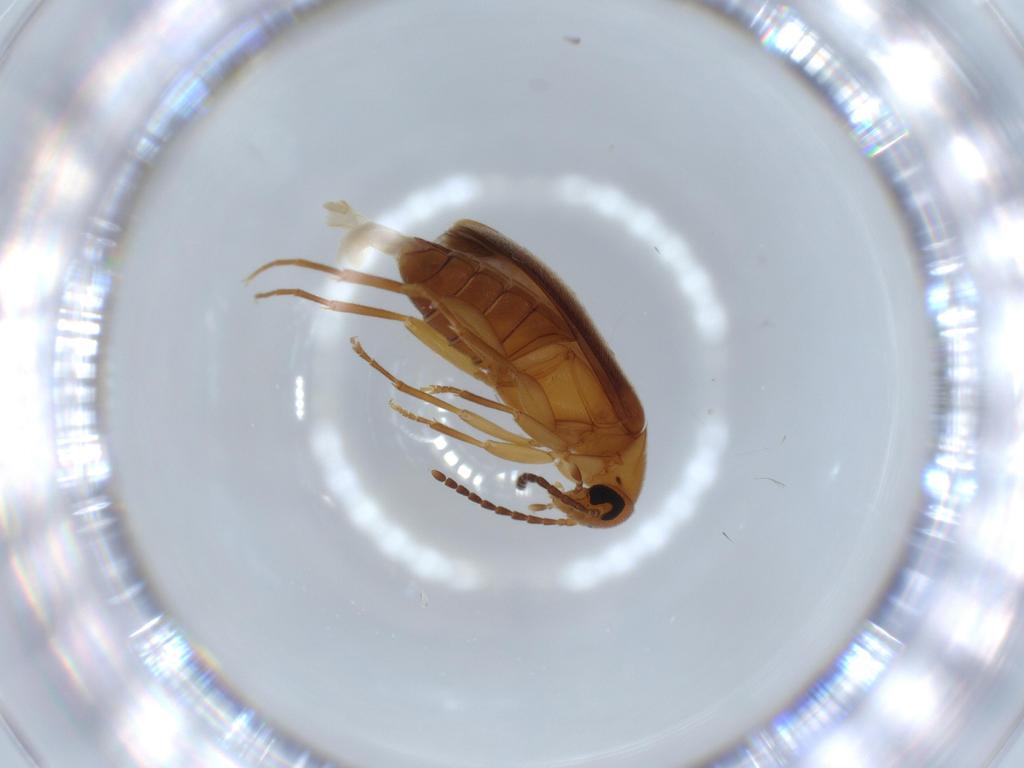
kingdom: Animalia
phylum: Arthropoda
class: Insecta
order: Coleoptera
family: Scraptiidae
